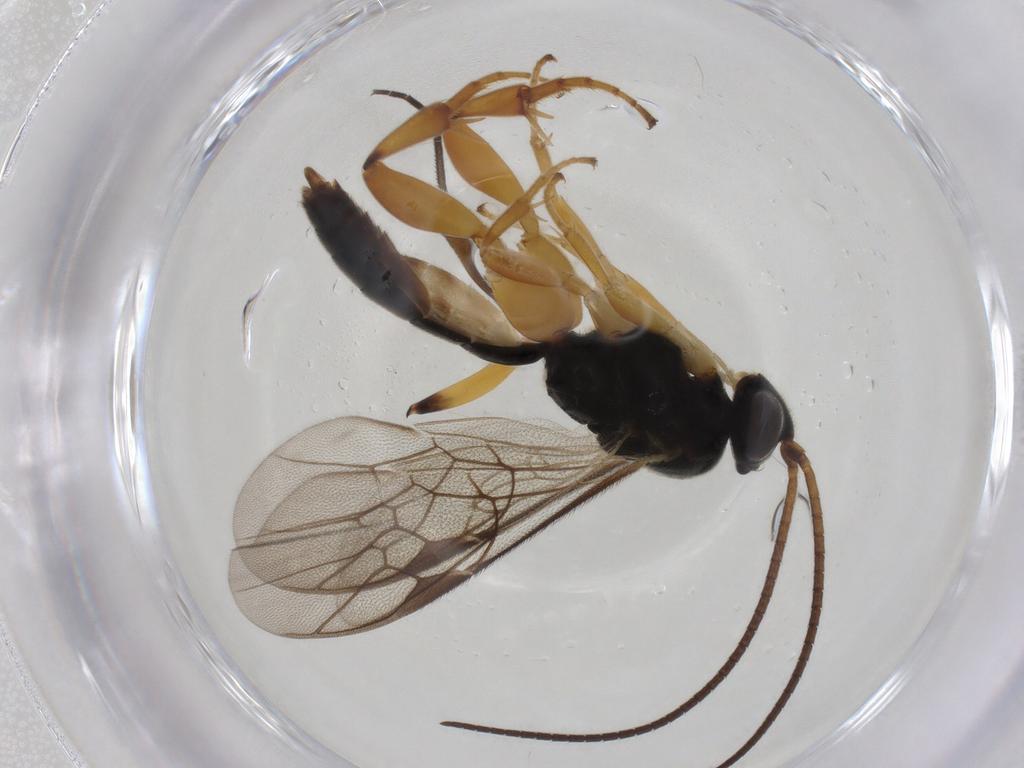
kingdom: Animalia
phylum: Arthropoda
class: Insecta
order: Hymenoptera
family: Ichneumonidae
